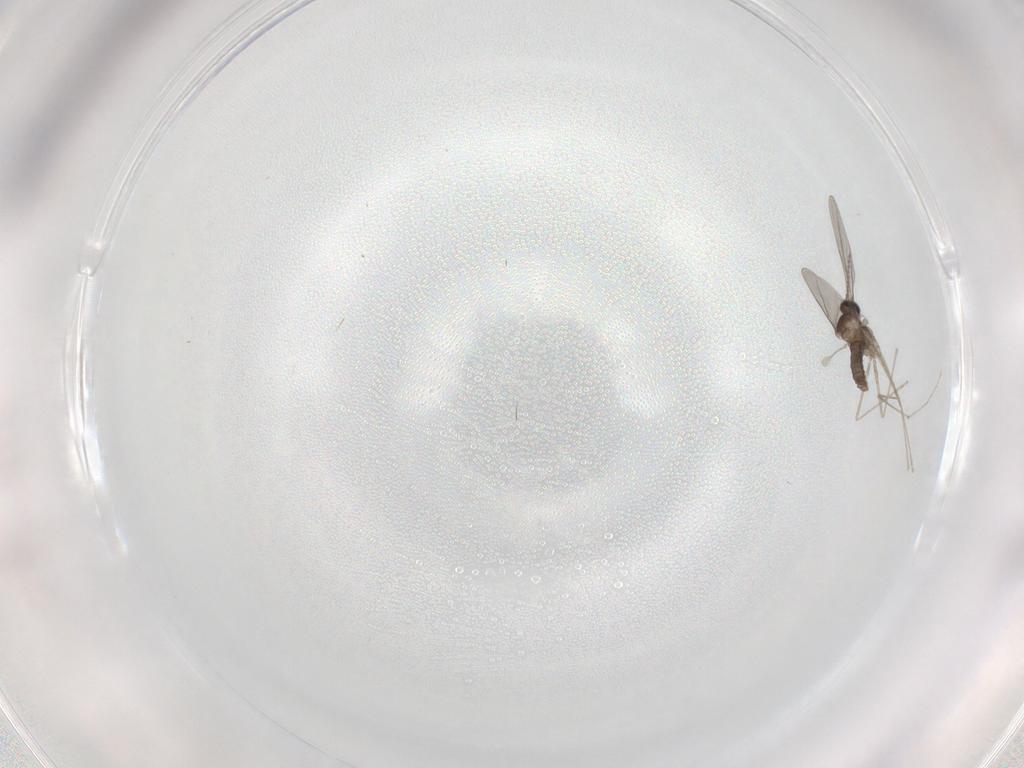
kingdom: Animalia
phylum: Arthropoda
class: Insecta
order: Diptera
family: Cecidomyiidae
